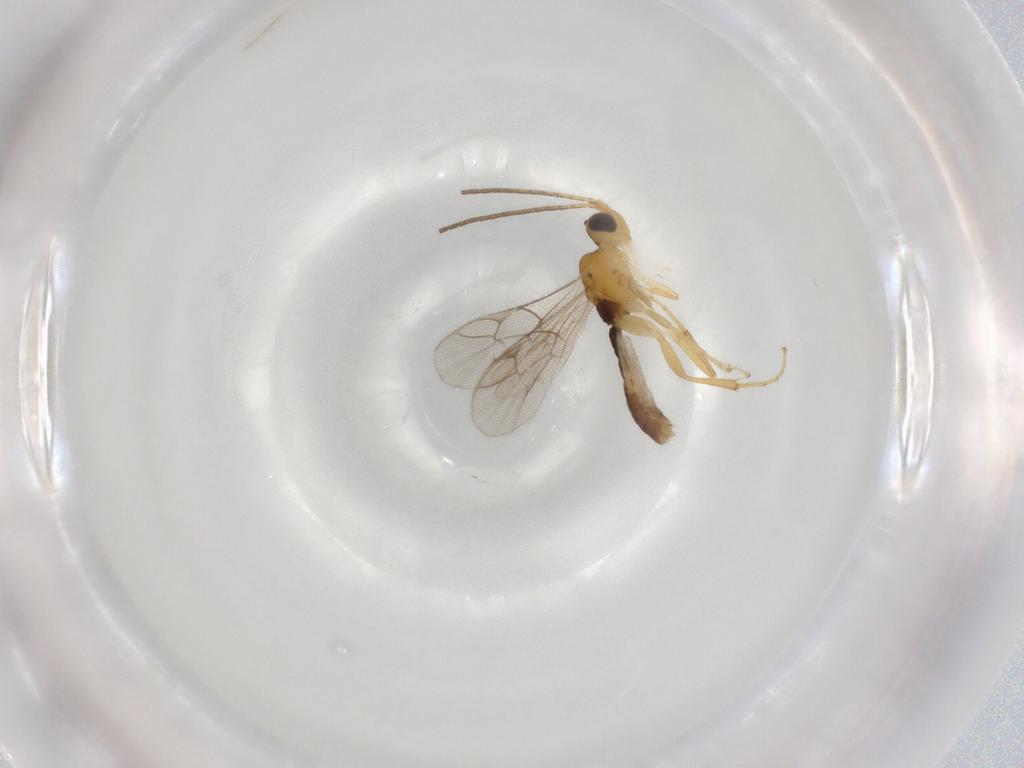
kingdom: Animalia
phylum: Arthropoda
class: Insecta
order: Hymenoptera
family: Ichneumonidae
